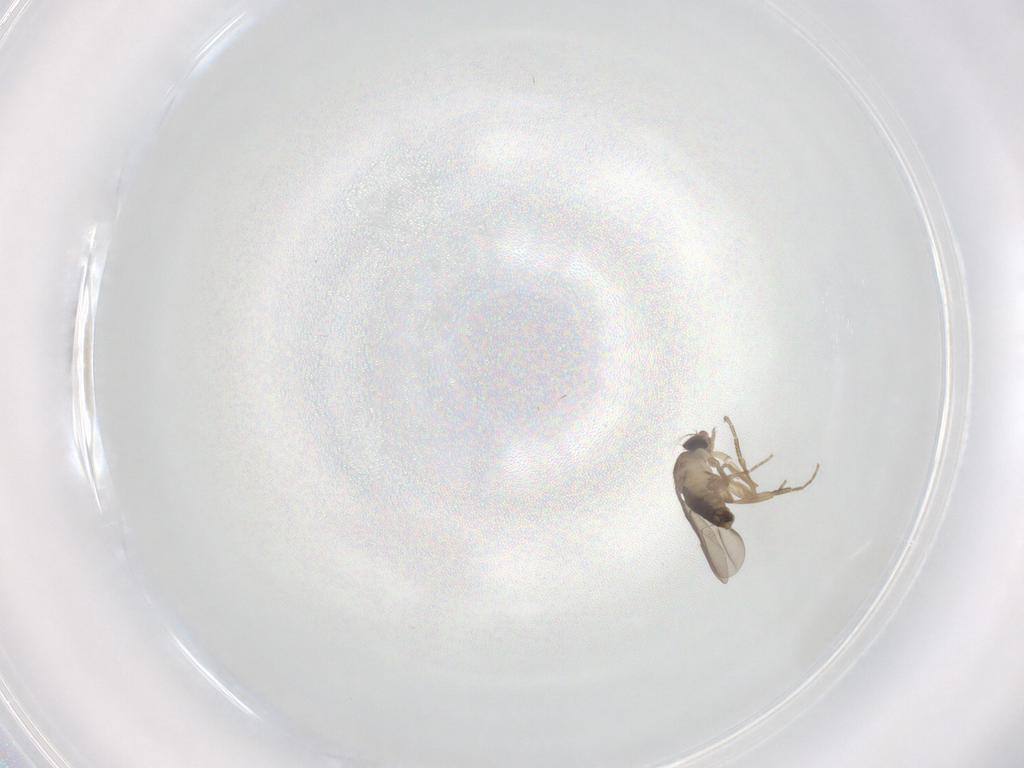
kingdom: Animalia
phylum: Arthropoda
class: Insecta
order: Diptera
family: Phoridae
